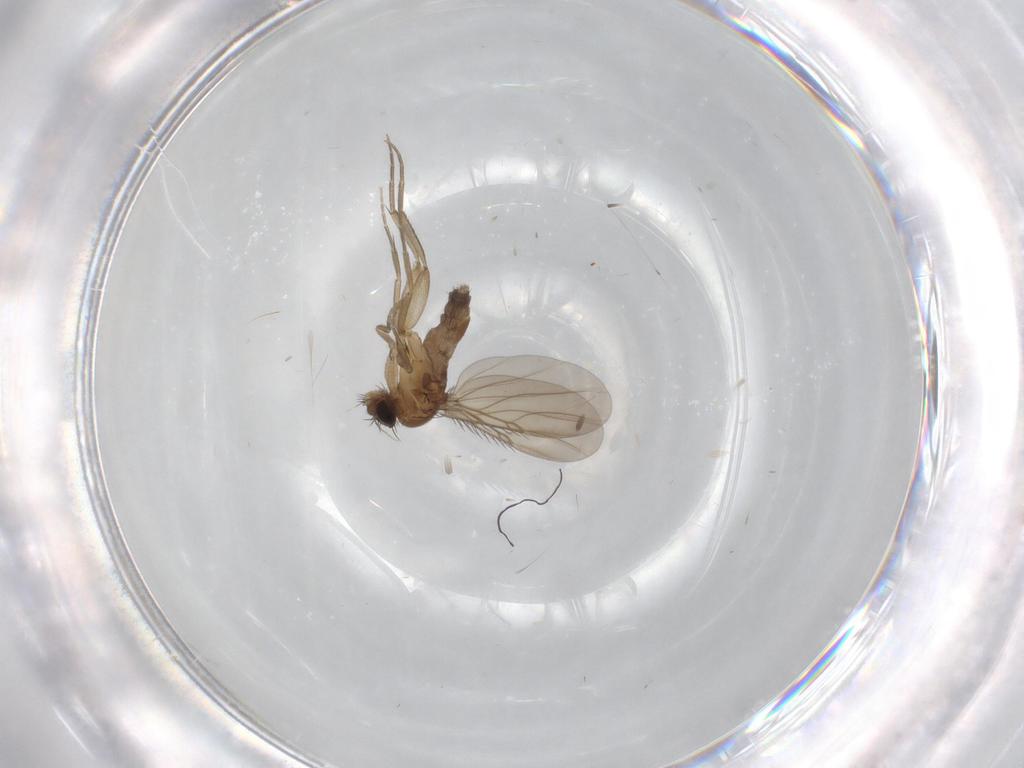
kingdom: Animalia
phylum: Arthropoda
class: Insecta
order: Diptera
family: Phoridae
